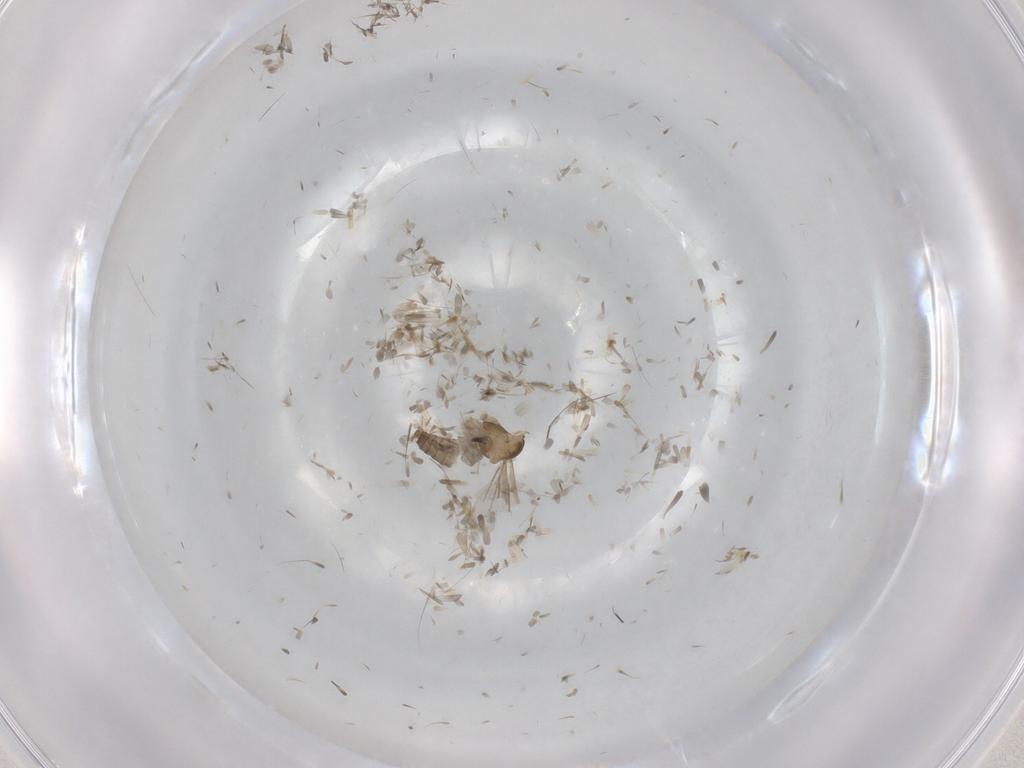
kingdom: Animalia
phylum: Arthropoda
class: Insecta
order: Diptera
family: Cecidomyiidae
